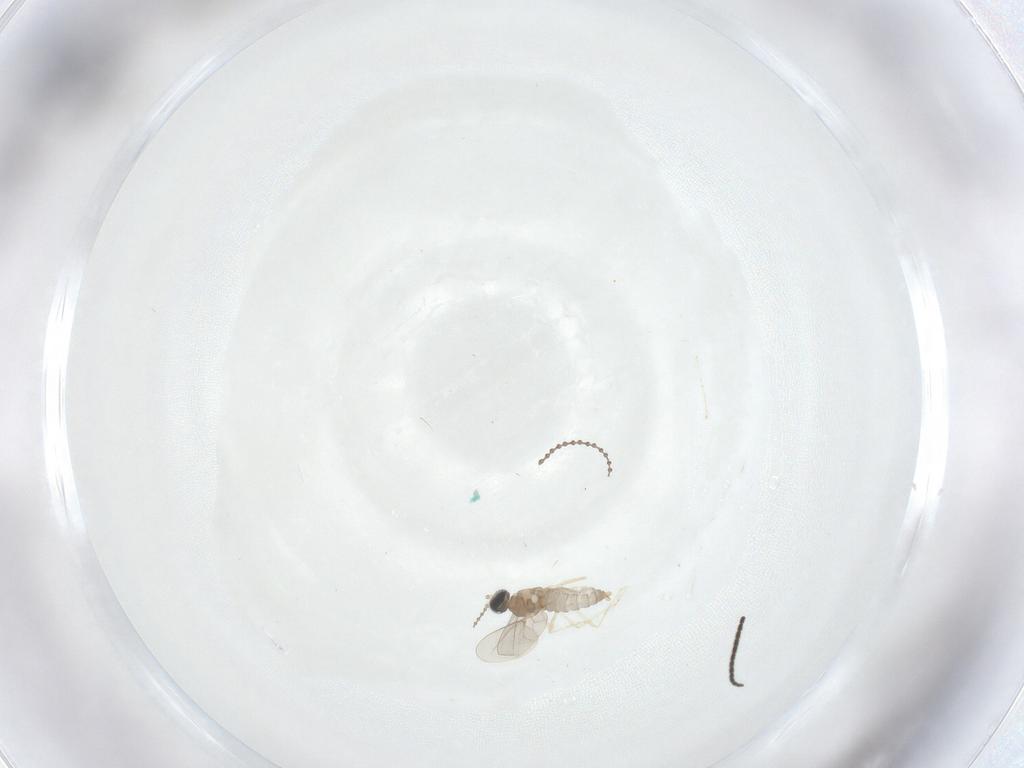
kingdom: Animalia
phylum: Arthropoda
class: Insecta
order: Diptera
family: Sciaridae
